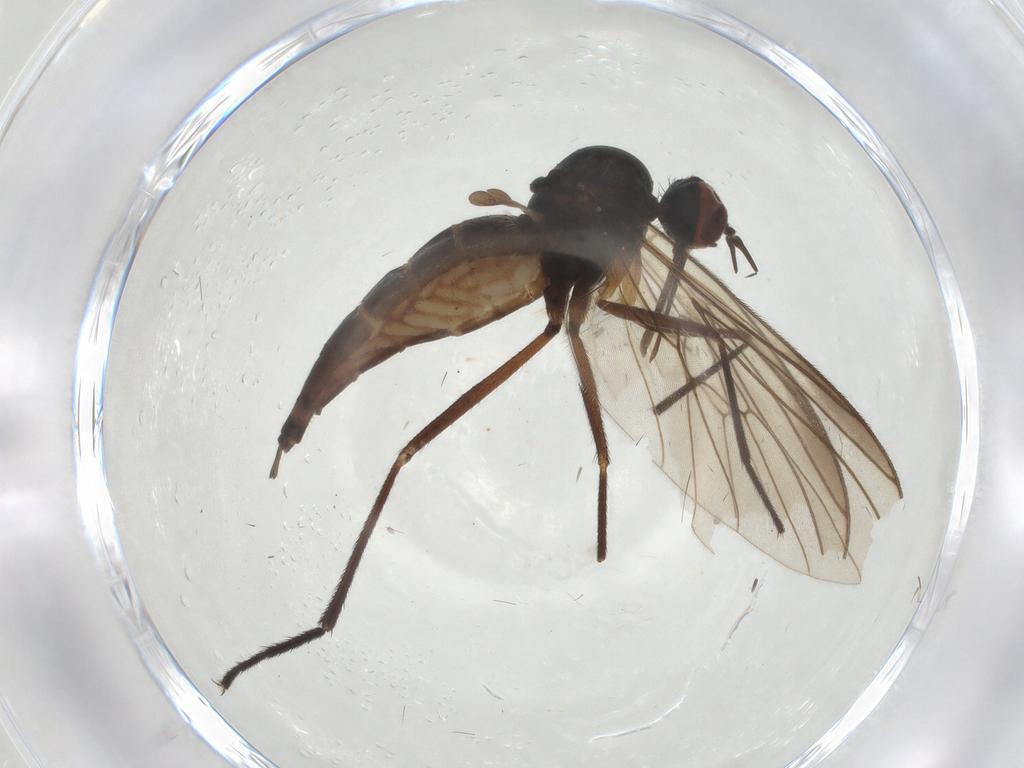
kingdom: Animalia
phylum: Arthropoda
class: Insecta
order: Diptera
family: Empididae
